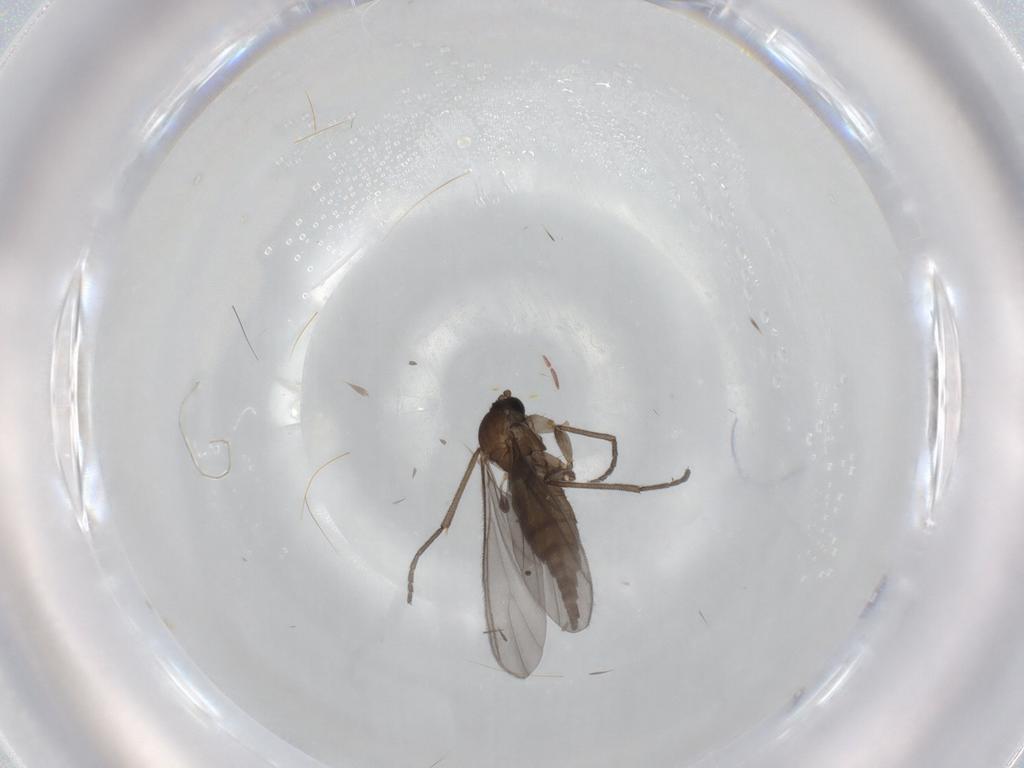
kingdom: Animalia
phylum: Arthropoda
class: Insecta
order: Diptera
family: Sciaridae
